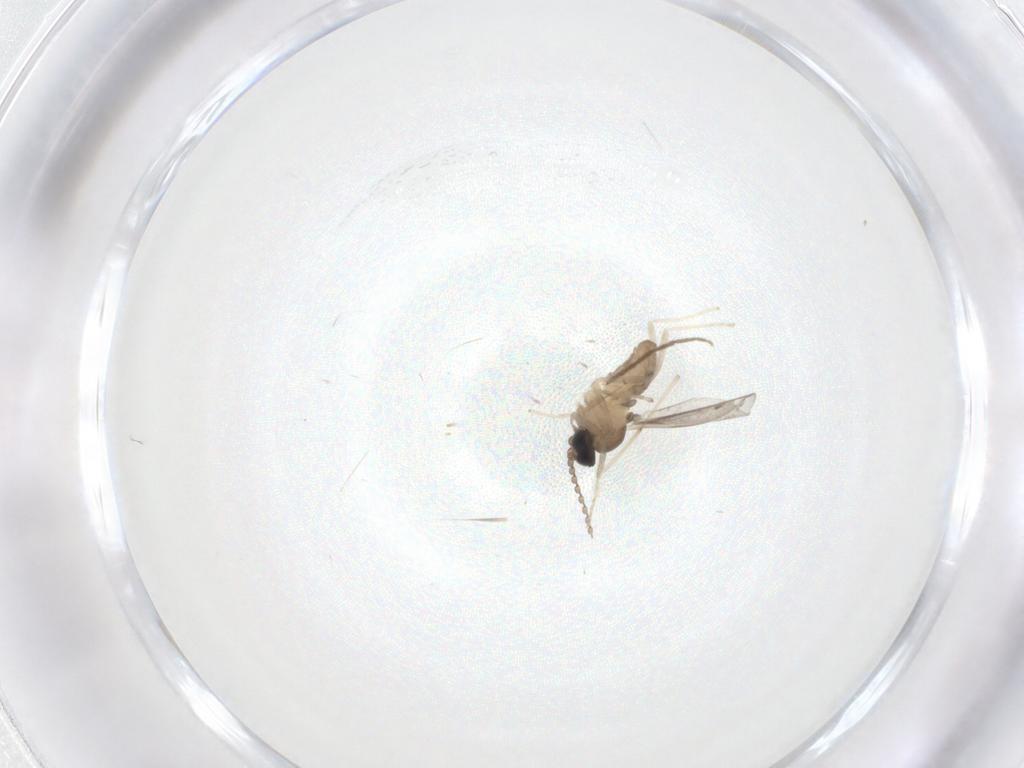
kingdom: Animalia
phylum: Arthropoda
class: Insecta
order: Diptera
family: Cecidomyiidae
